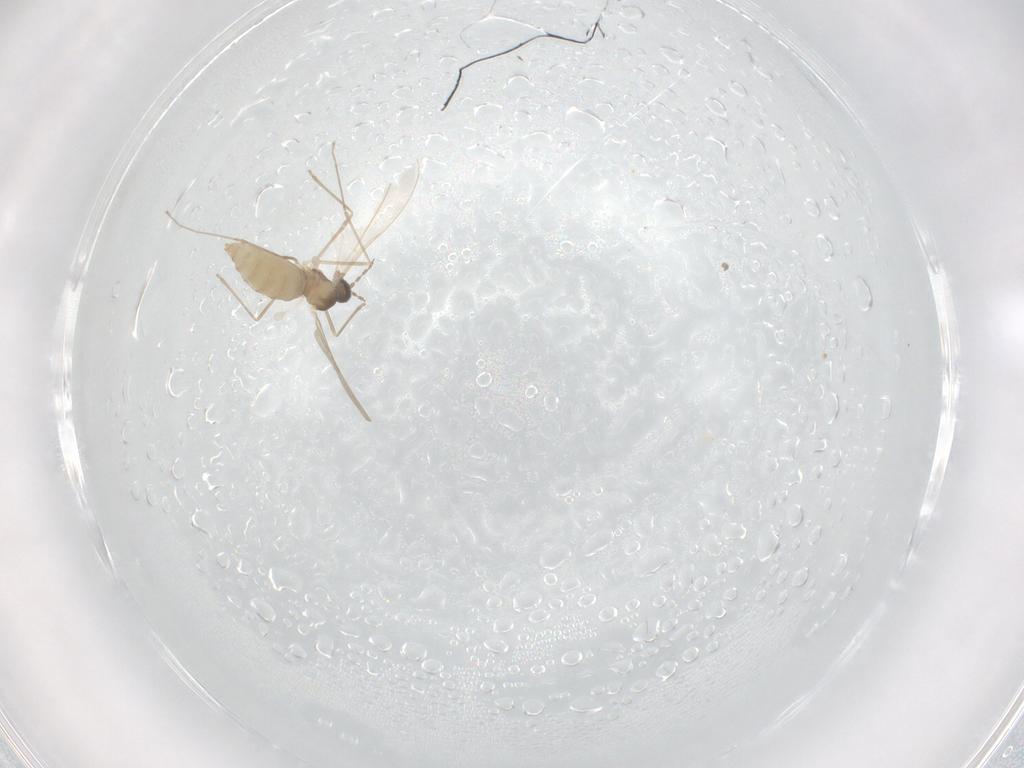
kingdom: Animalia
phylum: Arthropoda
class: Insecta
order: Diptera
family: Cecidomyiidae
